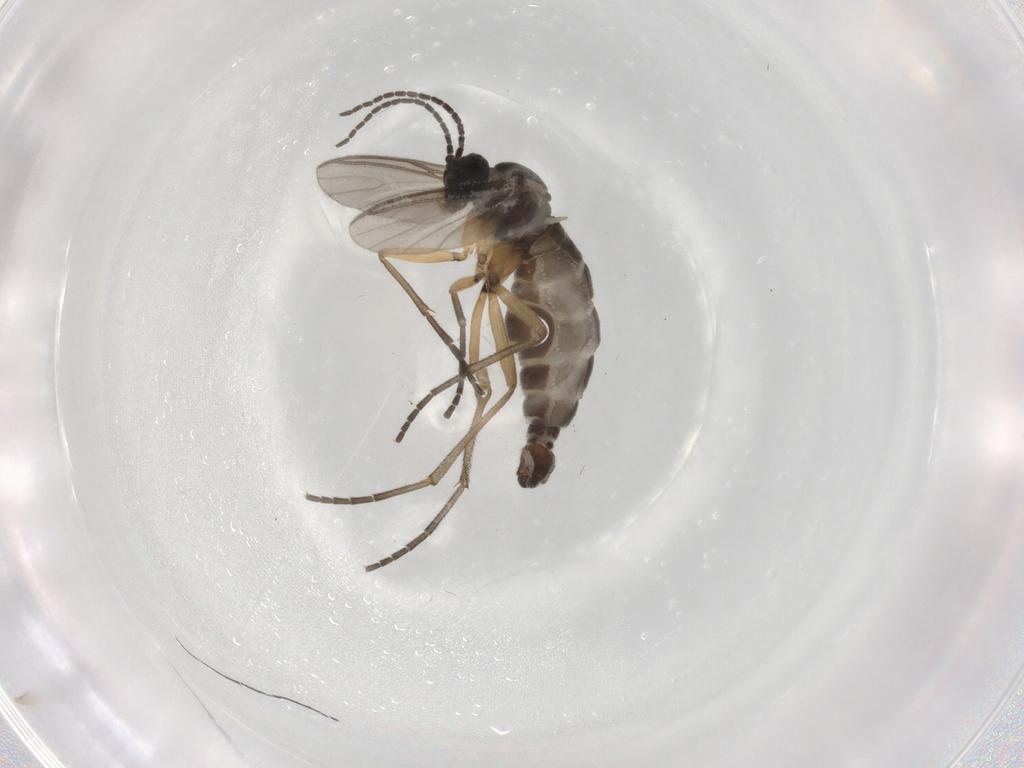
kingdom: Animalia
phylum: Arthropoda
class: Insecta
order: Diptera
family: Sciaridae
